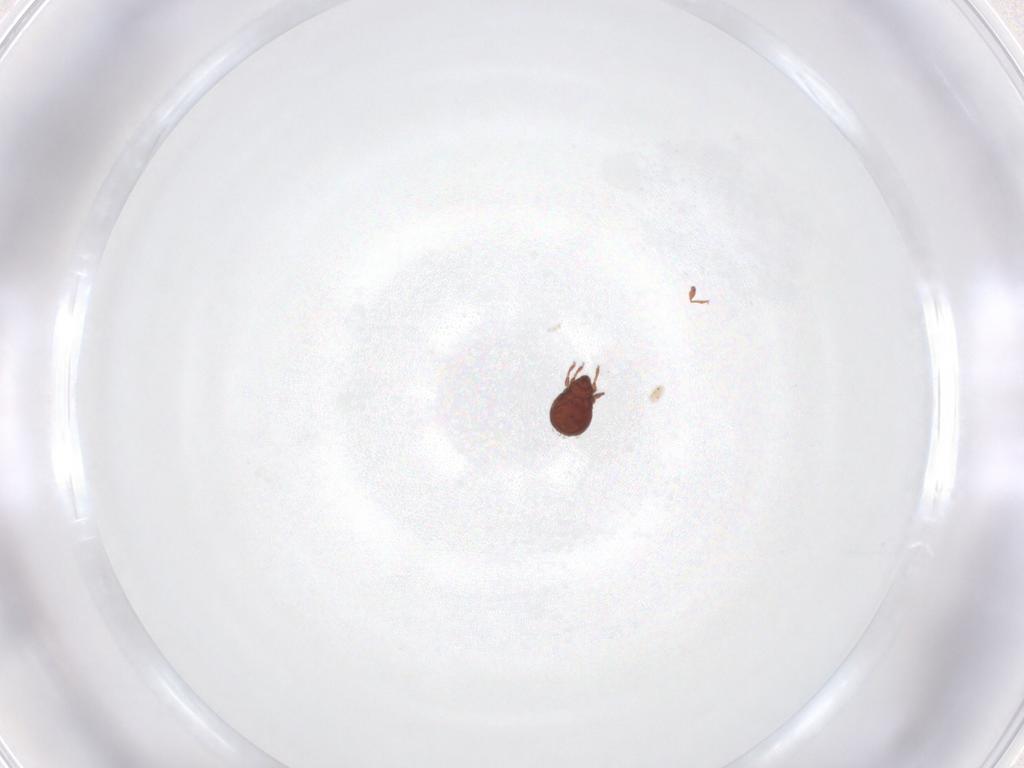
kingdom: Animalia
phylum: Arthropoda
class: Arachnida
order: Sarcoptiformes
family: Scheloribatidae
